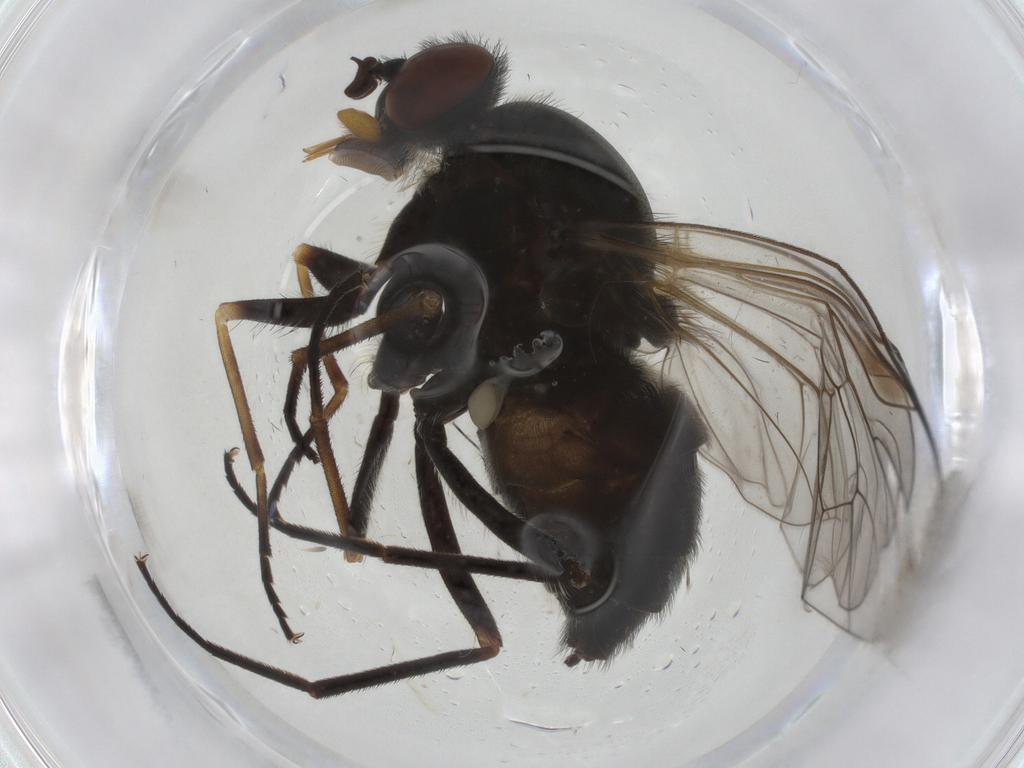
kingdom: Animalia
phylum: Arthropoda
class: Insecta
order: Diptera
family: Rhagionidae
